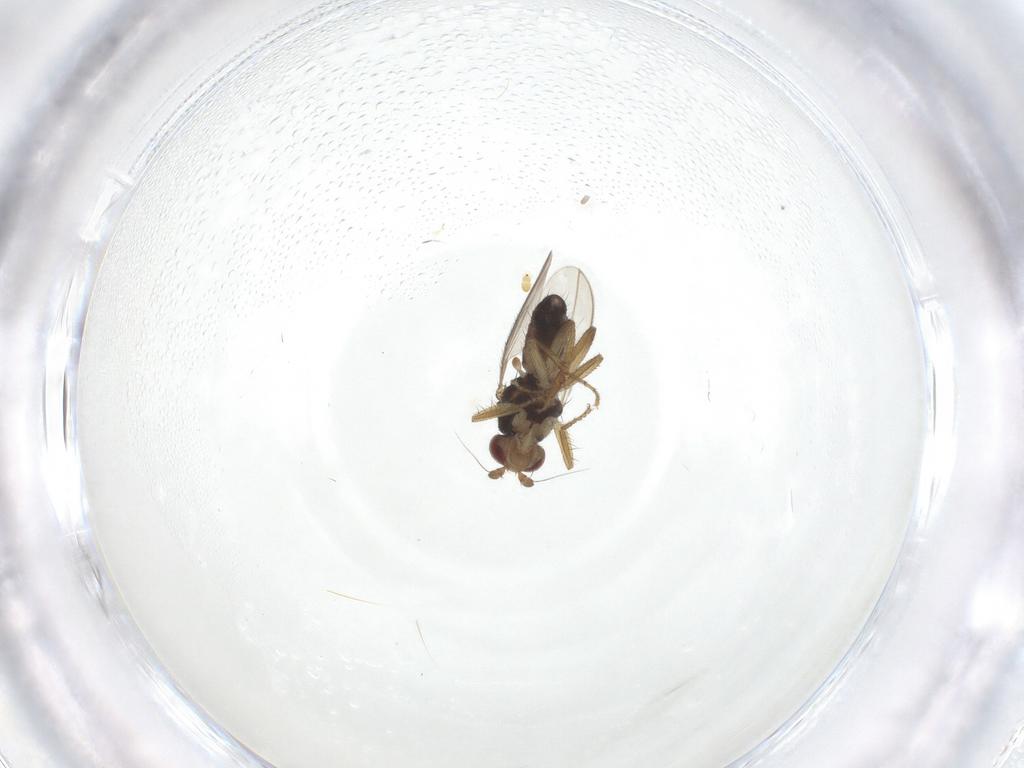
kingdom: Animalia
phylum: Arthropoda
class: Insecta
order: Diptera
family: Sphaeroceridae
